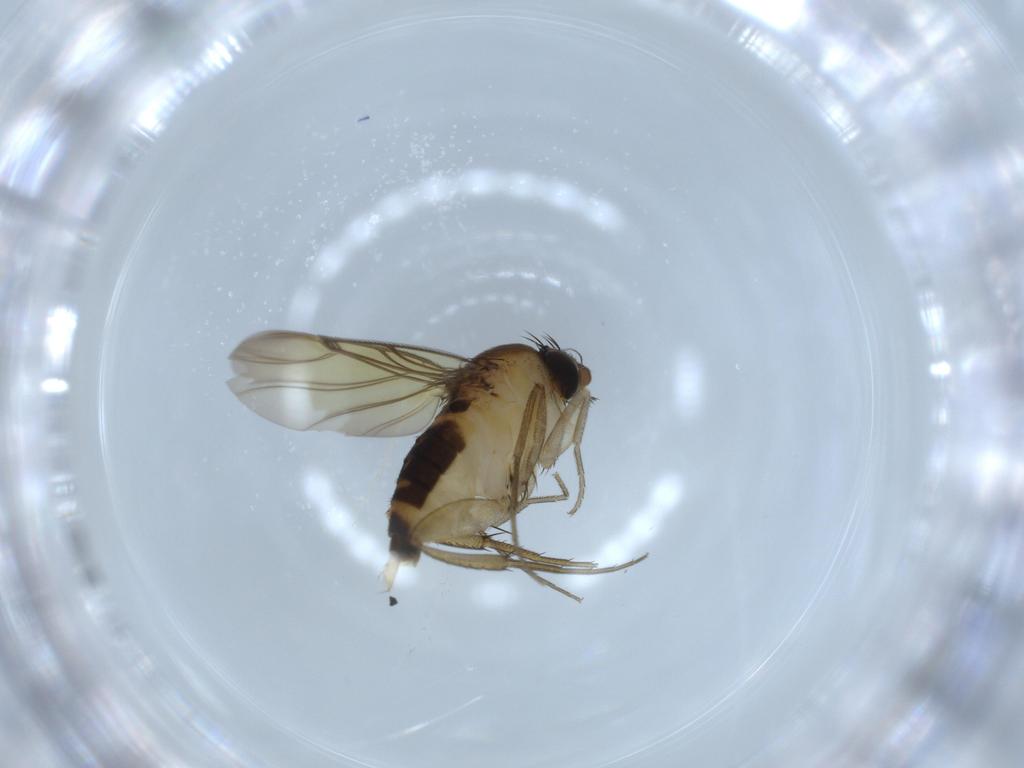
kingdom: Animalia
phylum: Arthropoda
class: Insecta
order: Diptera
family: Phoridae
